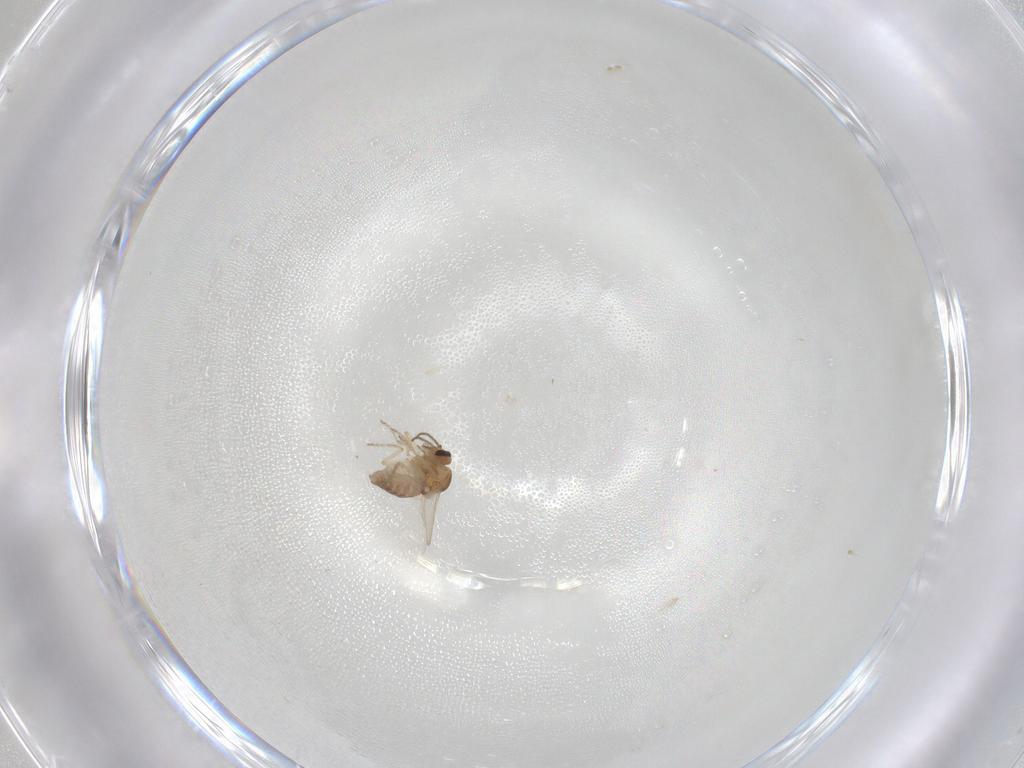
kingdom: Animalia
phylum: Arthropoda
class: Insecta
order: Diptera
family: Ceratopogonidae
